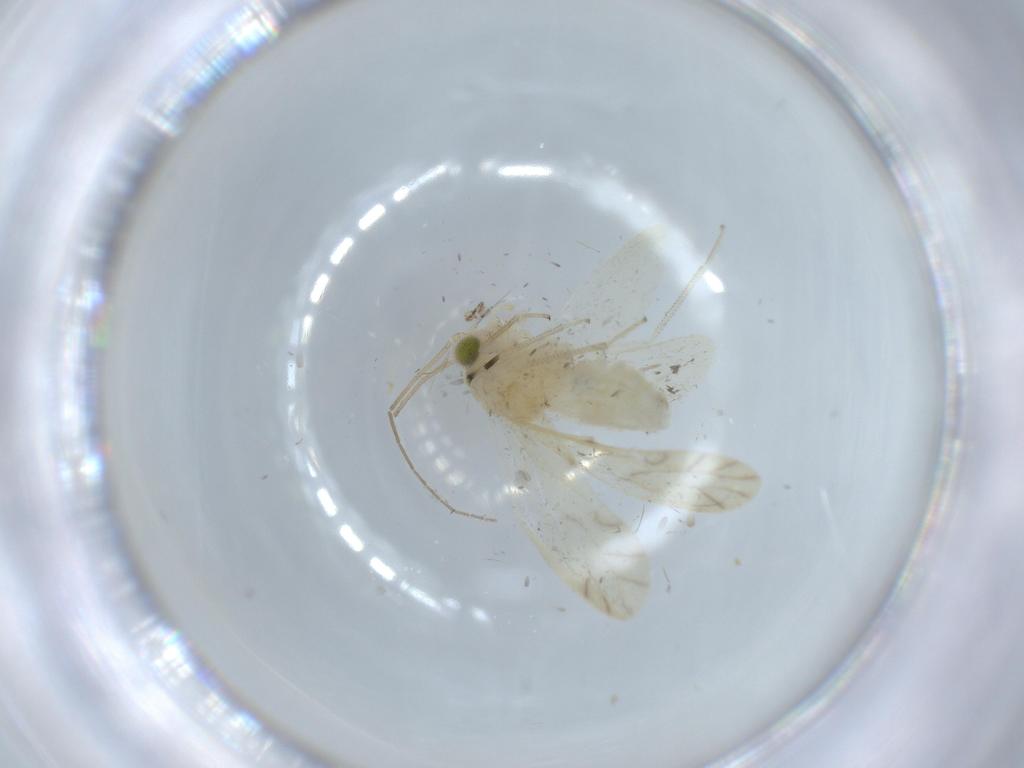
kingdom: Animalia
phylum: Arthropoda
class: Insecta
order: Psocodea
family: Caeciliusidae
